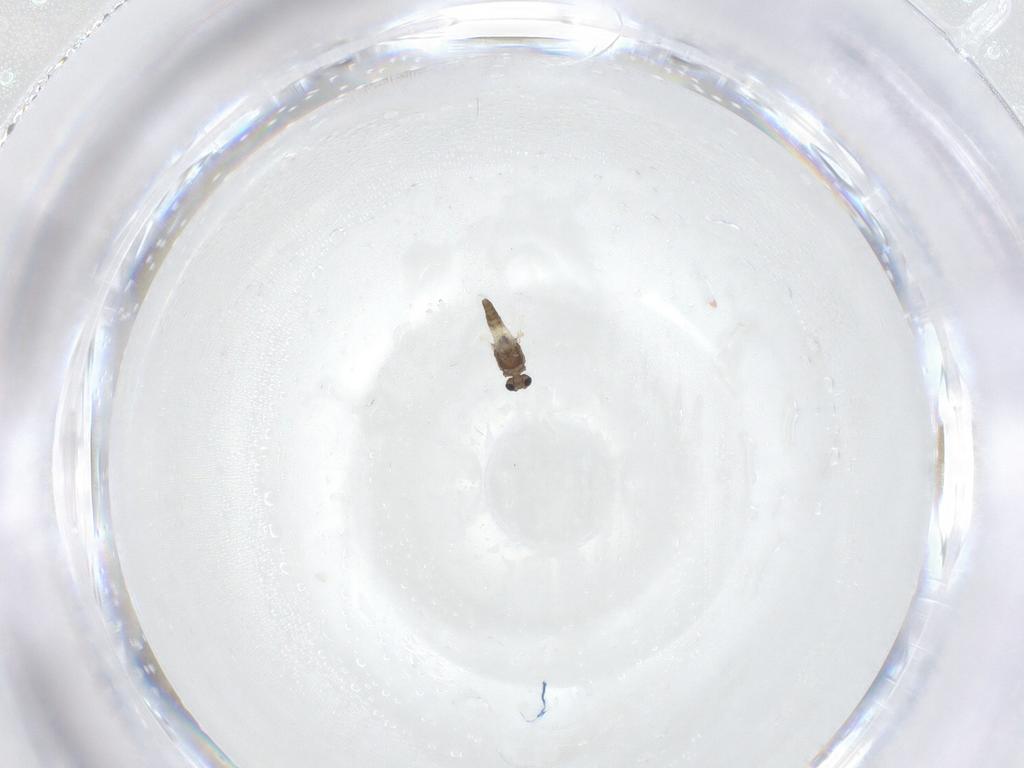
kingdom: Animalia
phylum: Arthropoda
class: Insecta
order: Diptera
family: Chironomidae
